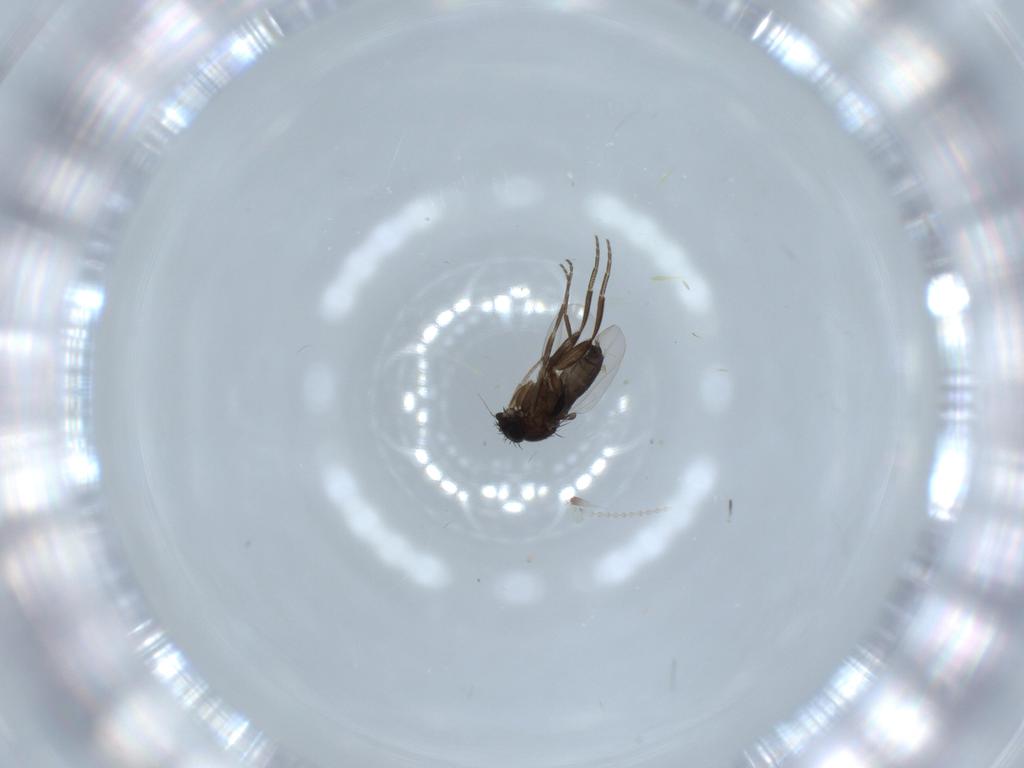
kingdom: Animalia
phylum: Arthropoda
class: Insecta
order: Diptera
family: Cecidomyiidae
